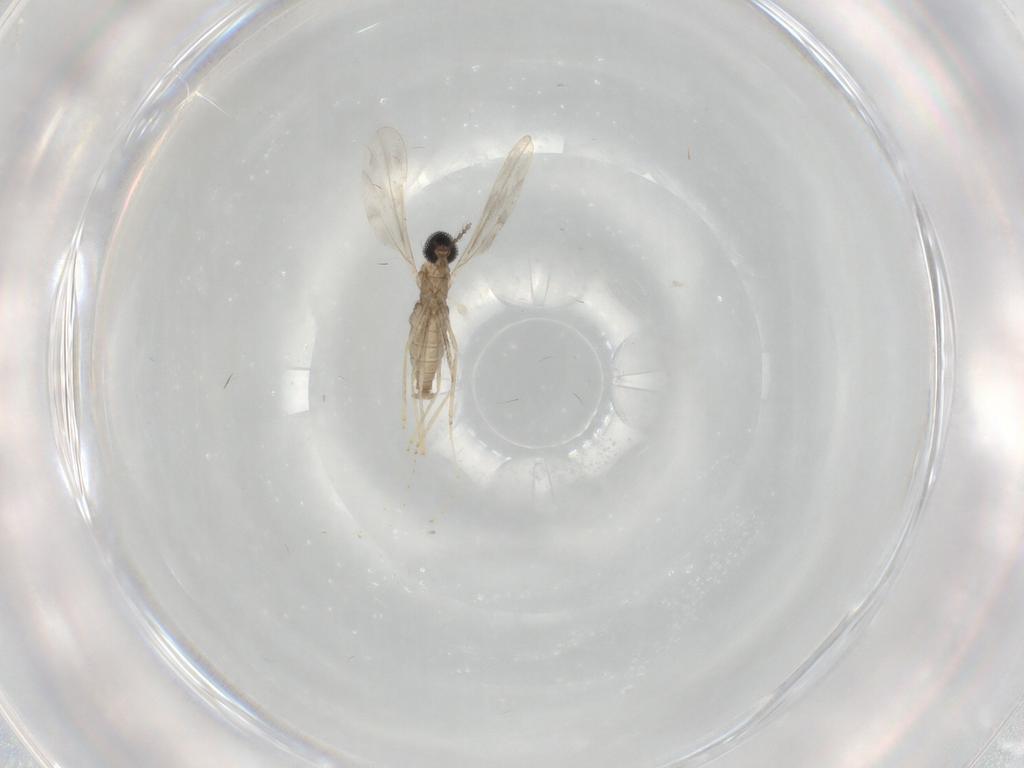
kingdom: Animalia
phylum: Arthropoda
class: Insecta
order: Diptera
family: Cecidomyiidae
